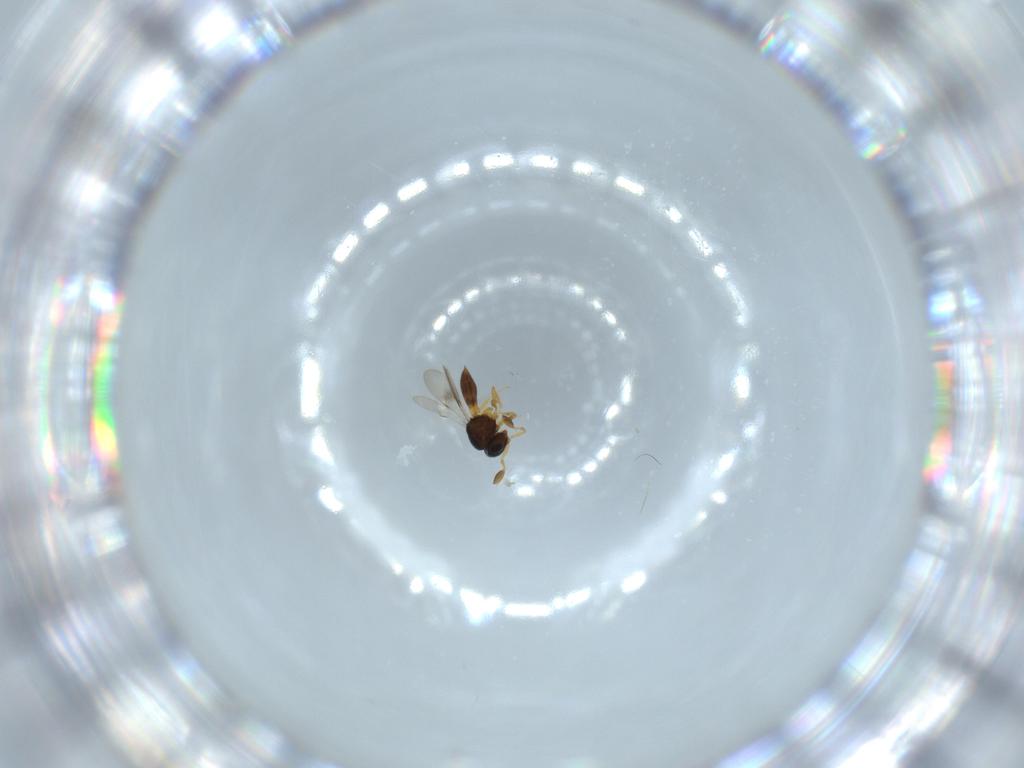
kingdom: Animalia
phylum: Arthropoda
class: Insecta
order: Hymenoptera
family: Scelionidae
